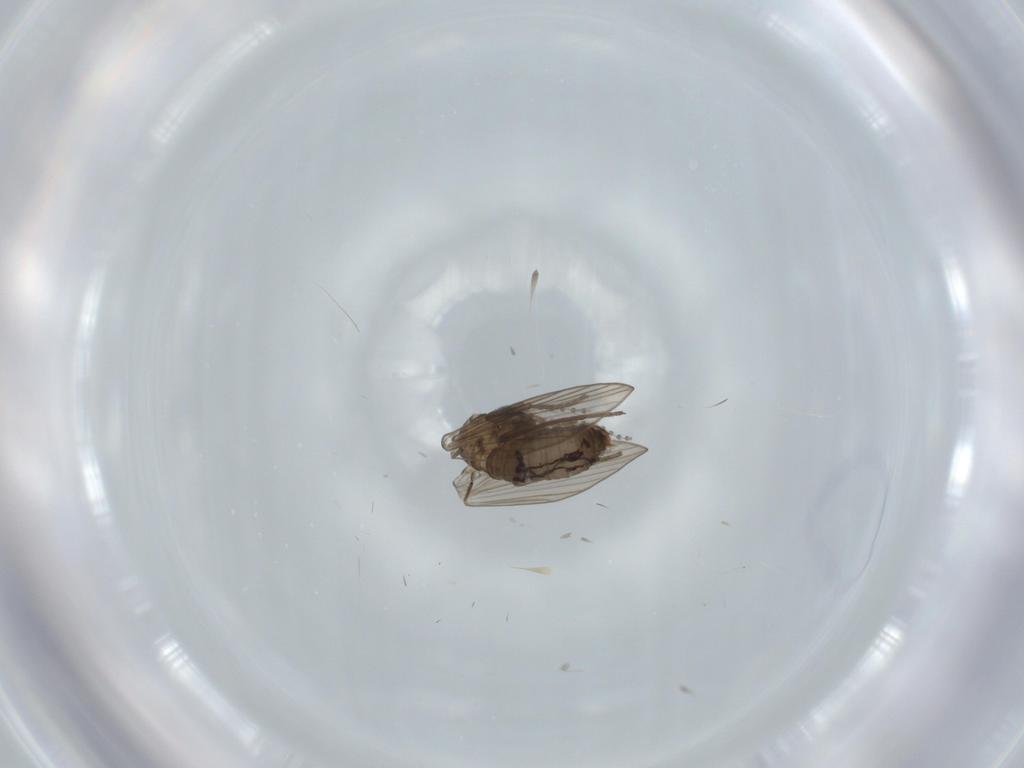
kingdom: Animalia
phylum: Arthropoda
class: Insecta
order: Diptera
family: Psychodidae
